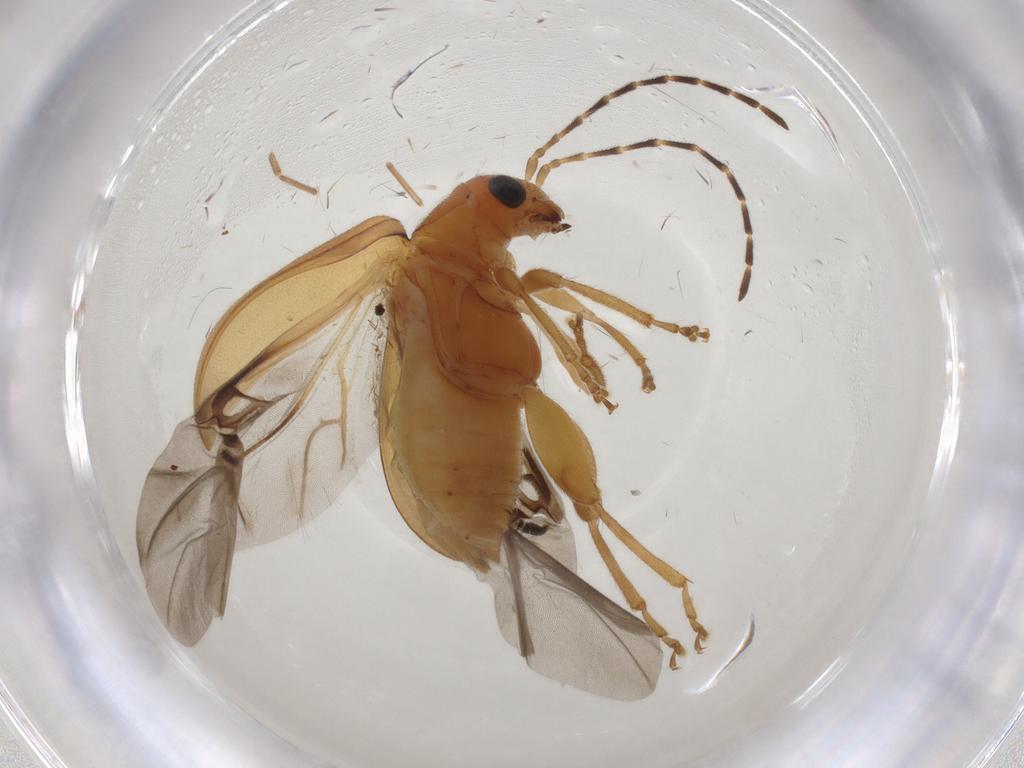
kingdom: Animalia
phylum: Arthropoda
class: Insecta
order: Coleoptera
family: Chrysomelidae
